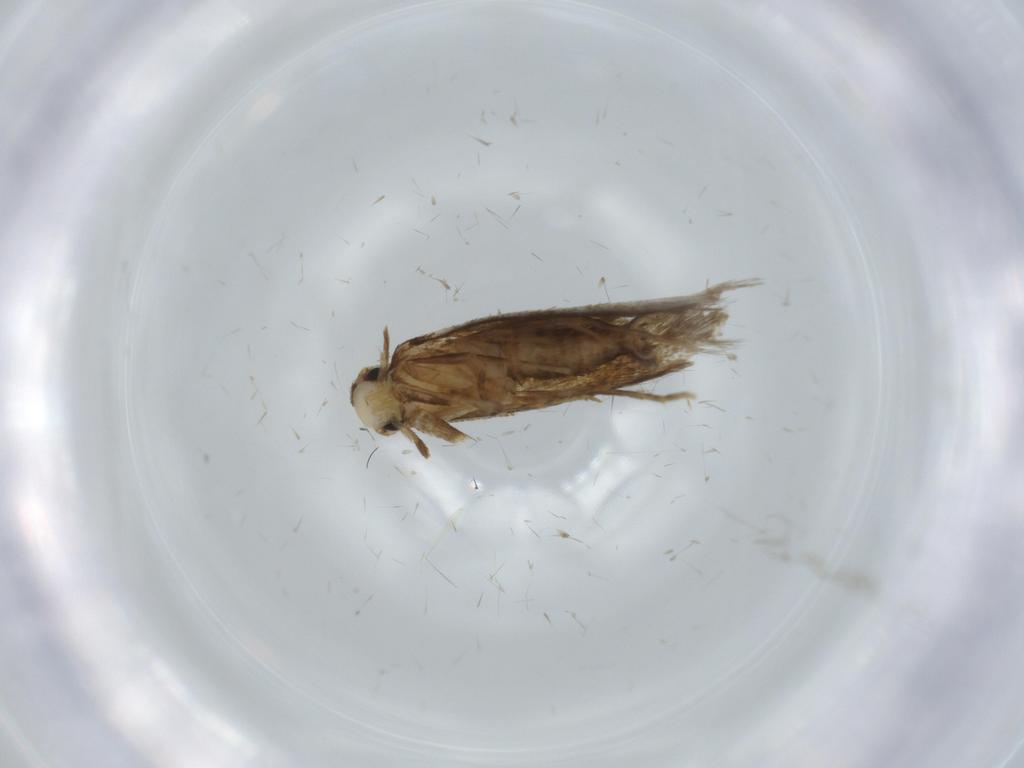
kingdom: Animalia
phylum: Arthropoda
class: Insecta
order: Lepidoptera
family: Tineidae
